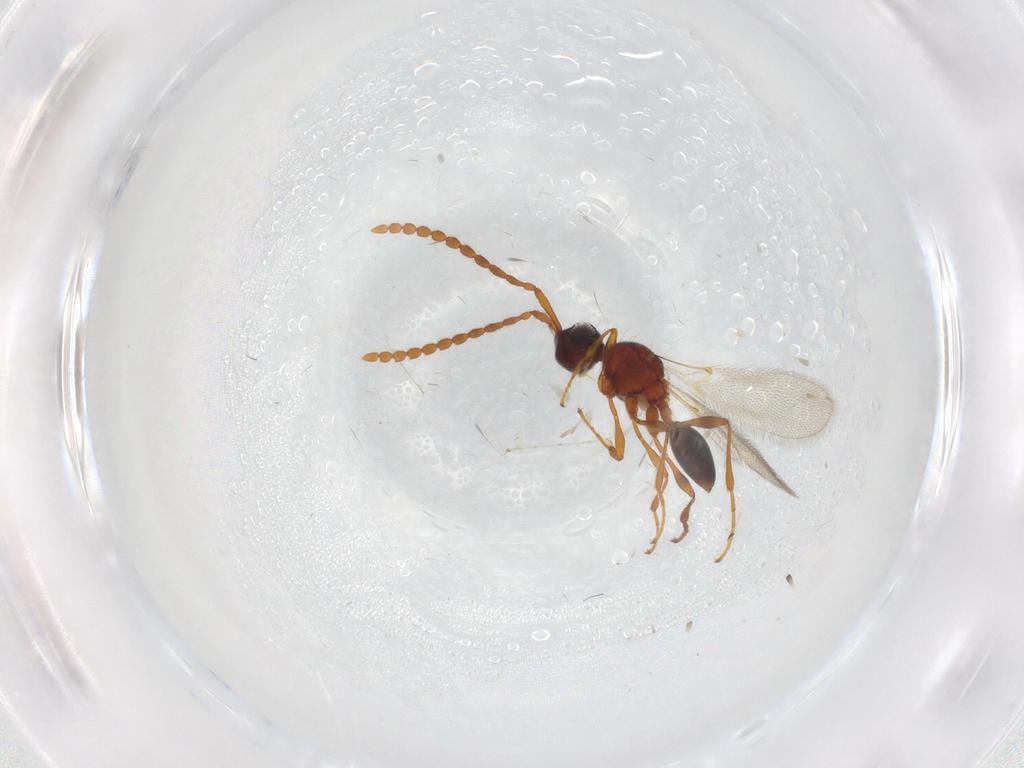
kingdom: Animalia
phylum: Arthropoda
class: Insecta
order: Hymenoptera
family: Diapriidae
